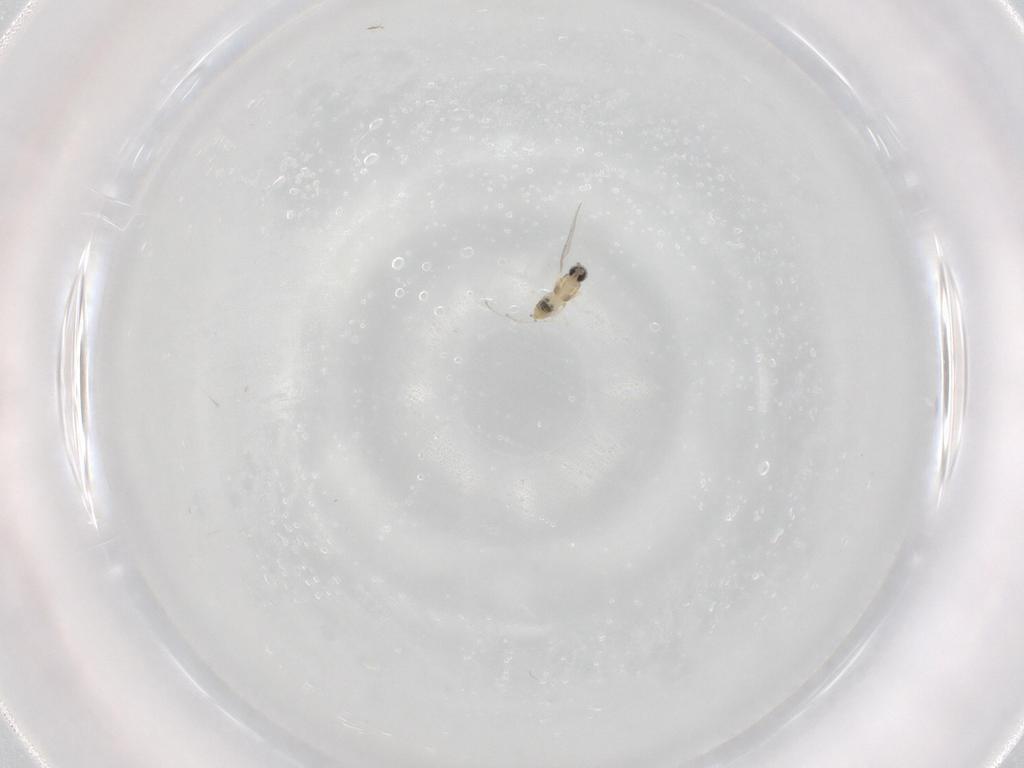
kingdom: Animalia
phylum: Arthropoda
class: Insecta
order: Diptera
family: Cecidomyiidae
